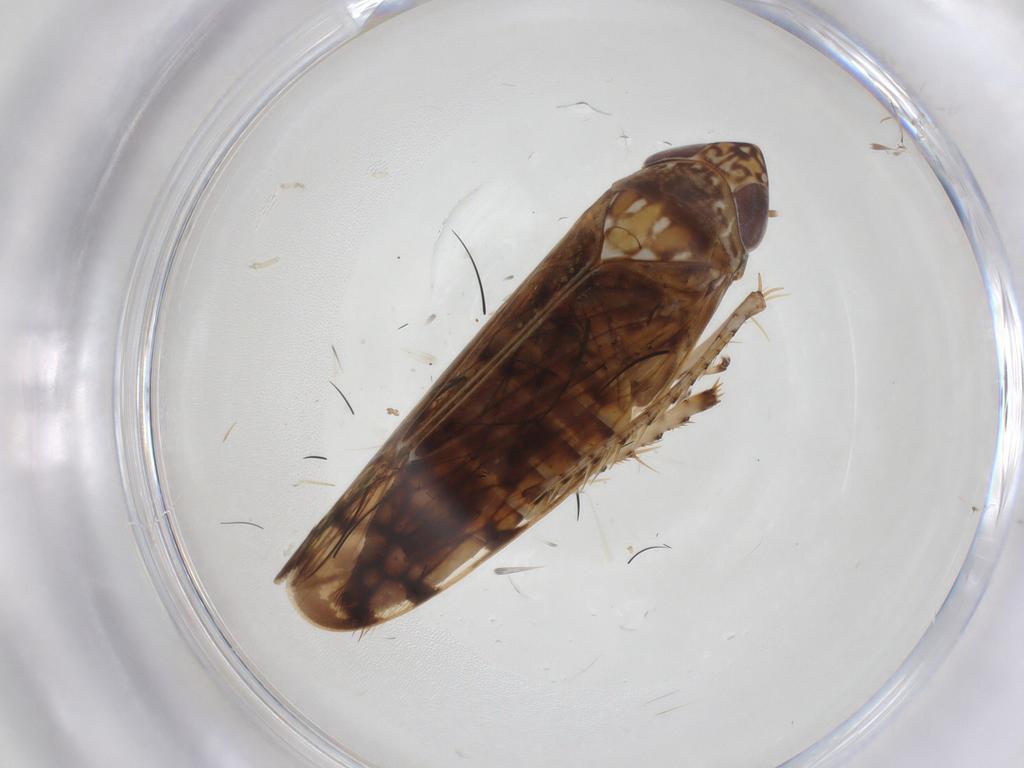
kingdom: Animalia
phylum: Arthropoda
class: Insecta
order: Hemiptera
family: Cicadellidae
